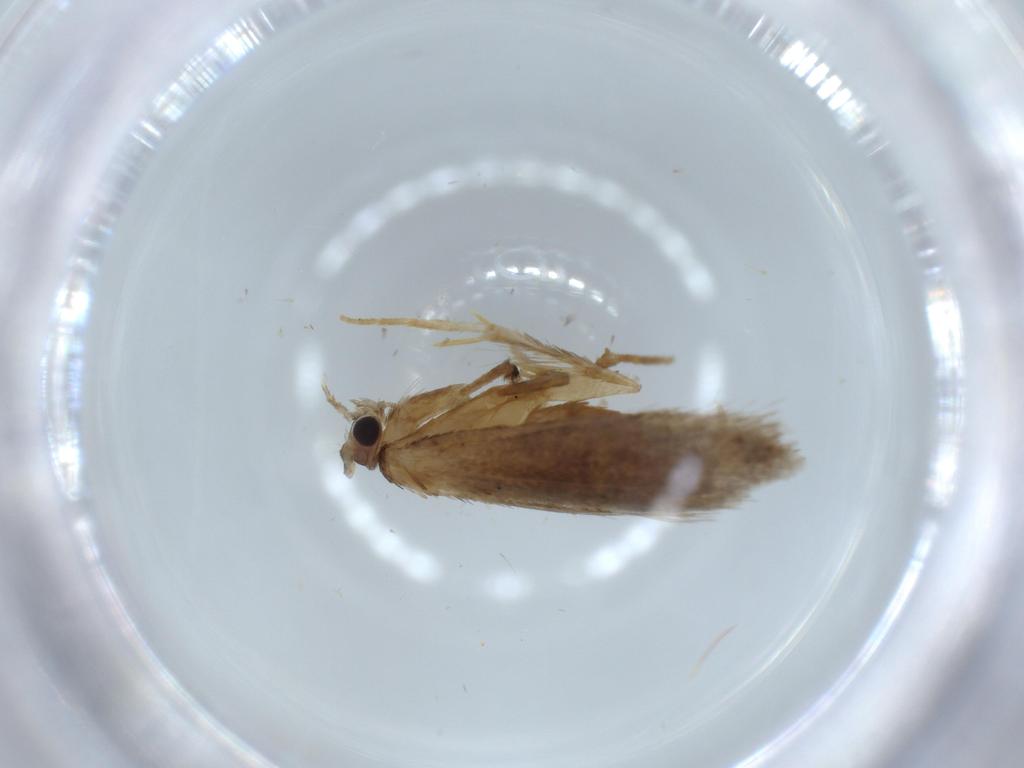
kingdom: Animalia
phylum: Arthropoda
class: Insecta
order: Lepidoptera
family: Tineidae
